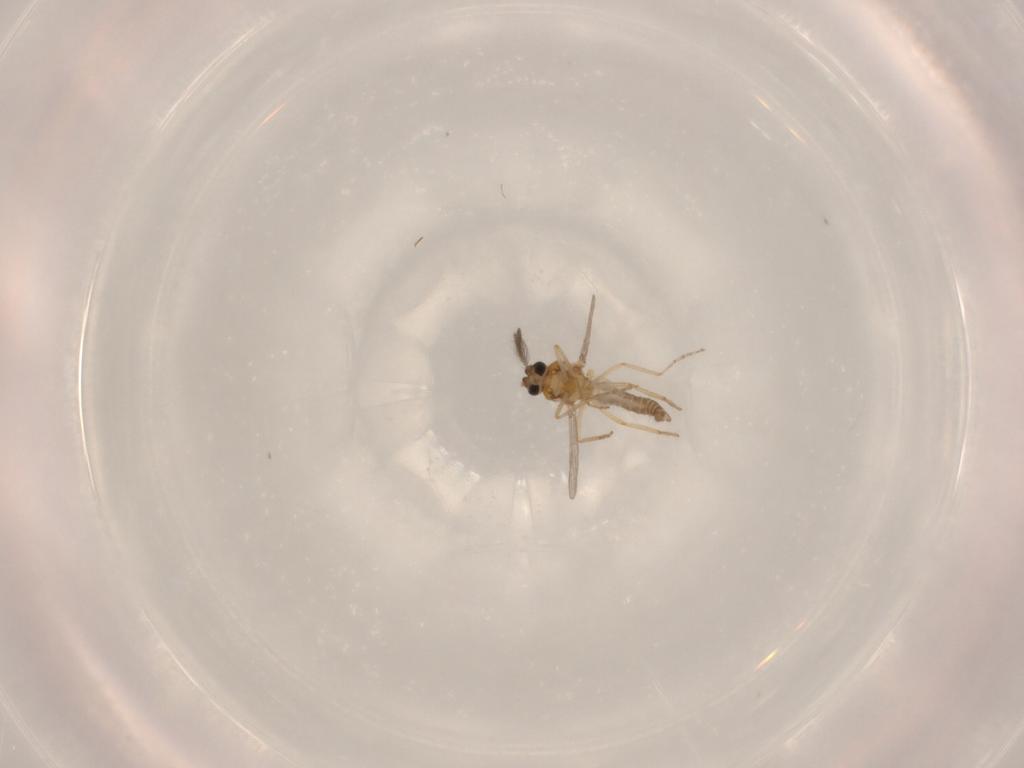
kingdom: Animalia
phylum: Arthropoda
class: Insecta
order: Diptera
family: Ceratopogonidae
